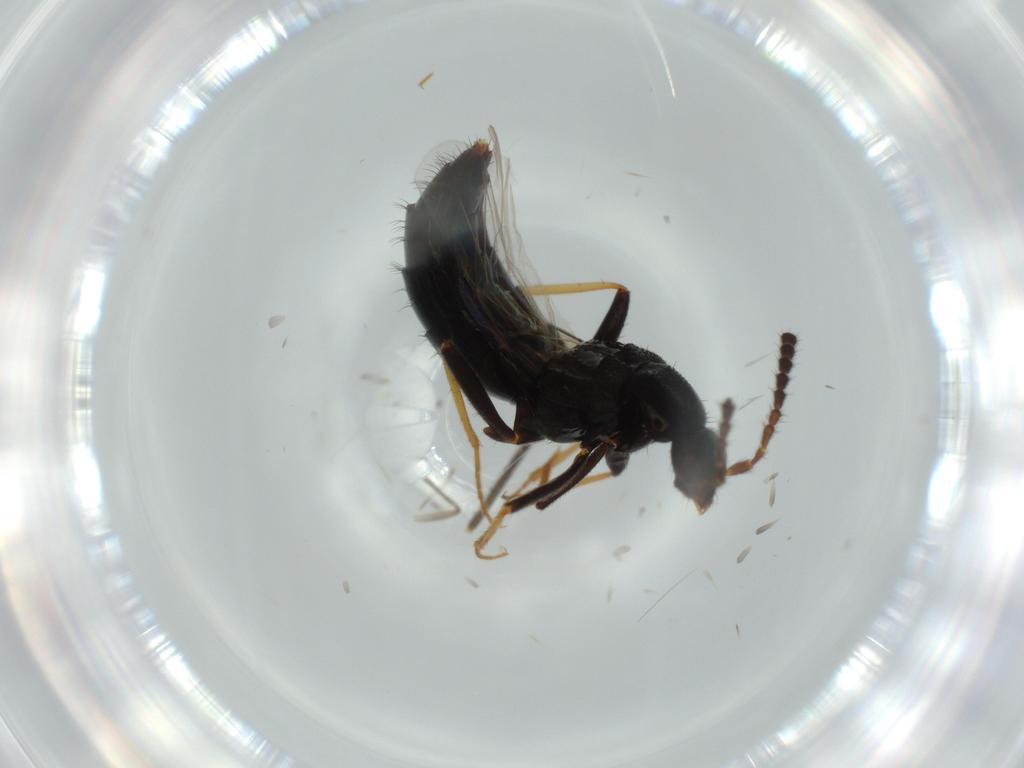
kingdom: Animalia
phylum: Arthropoda
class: Insecta
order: Coleoptera
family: Staphylinidae
